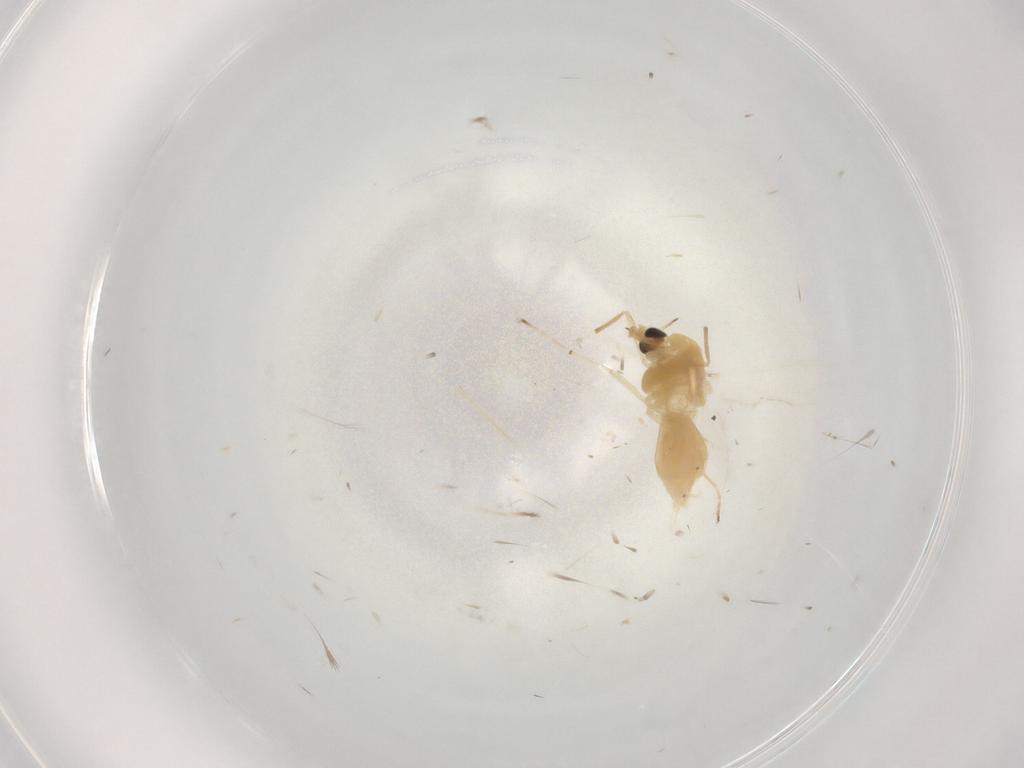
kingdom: Animalia
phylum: Arthropoda
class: Insecta
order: Diptera
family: Chironomidae
